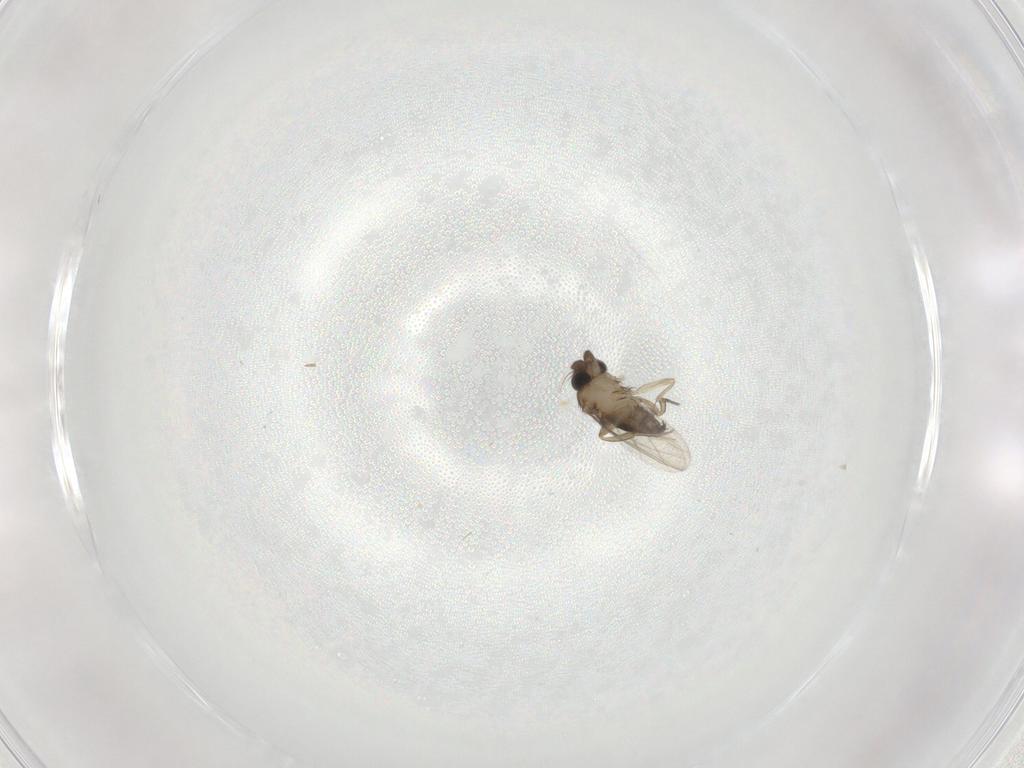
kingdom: Animalia
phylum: Arthropoda
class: Insecta
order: Diptera
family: Phoridae
